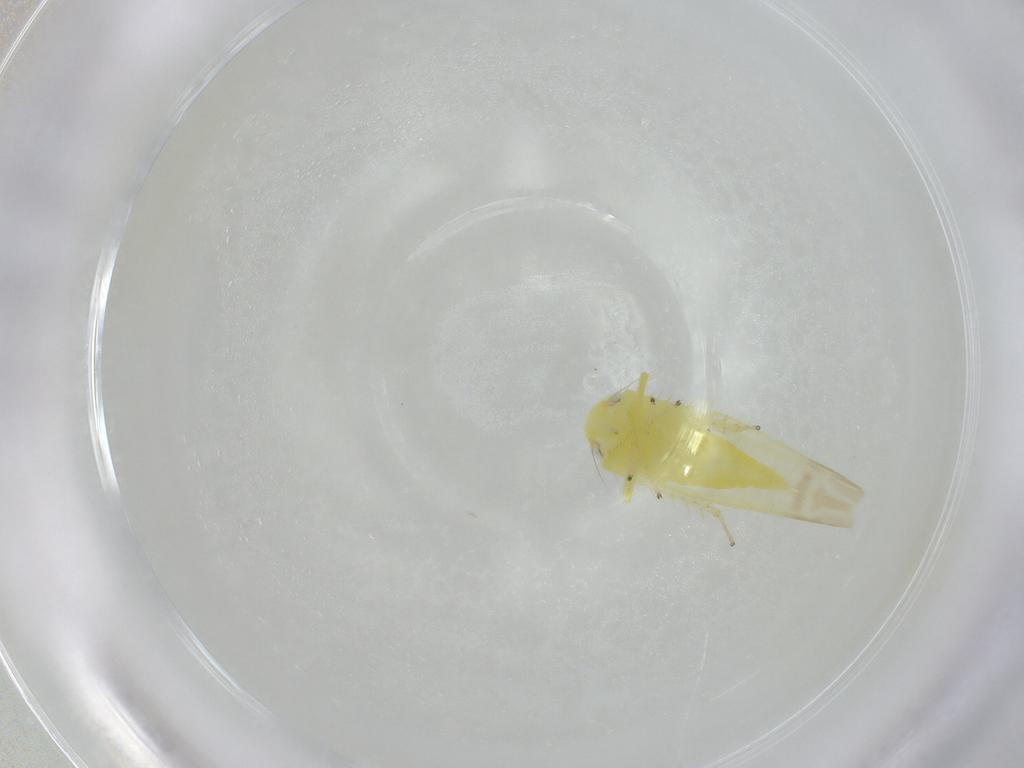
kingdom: Animalia
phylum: Arthropoda
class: Insecta
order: Hemiptera
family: Cicadellidae
